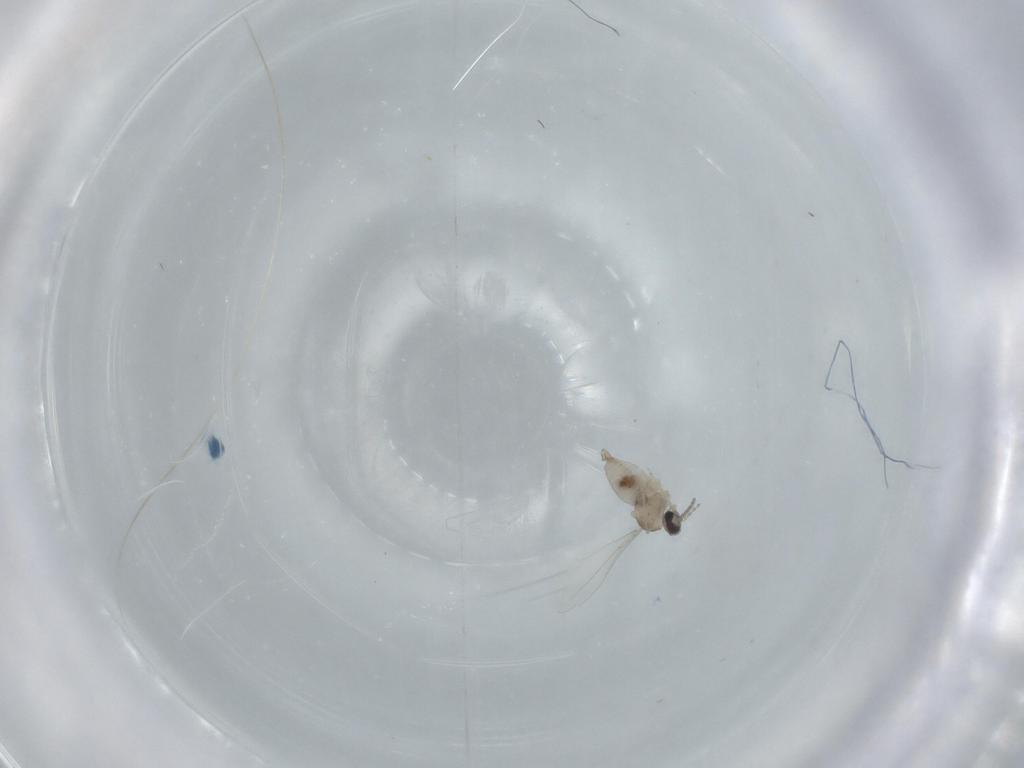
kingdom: Animalia
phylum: Arthropoda
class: Insecta
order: Diptera
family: Cecidomyiidae
